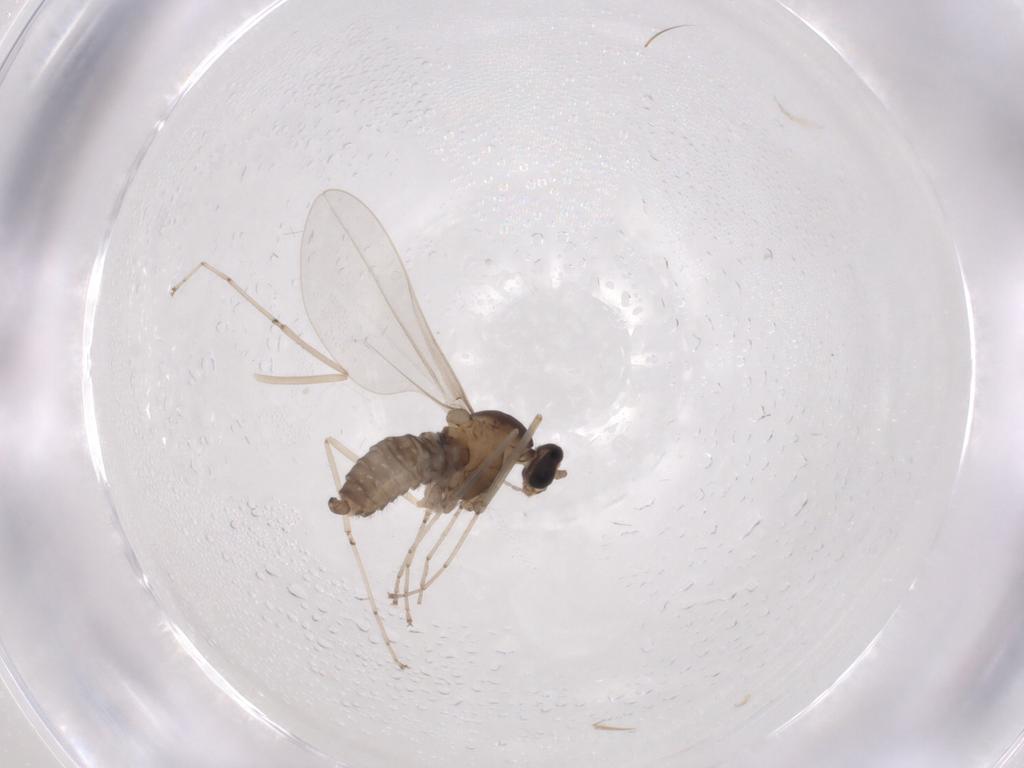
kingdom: Animalia
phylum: Arthropoda
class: Insecta
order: Diptera
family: Cecidomyiidae
